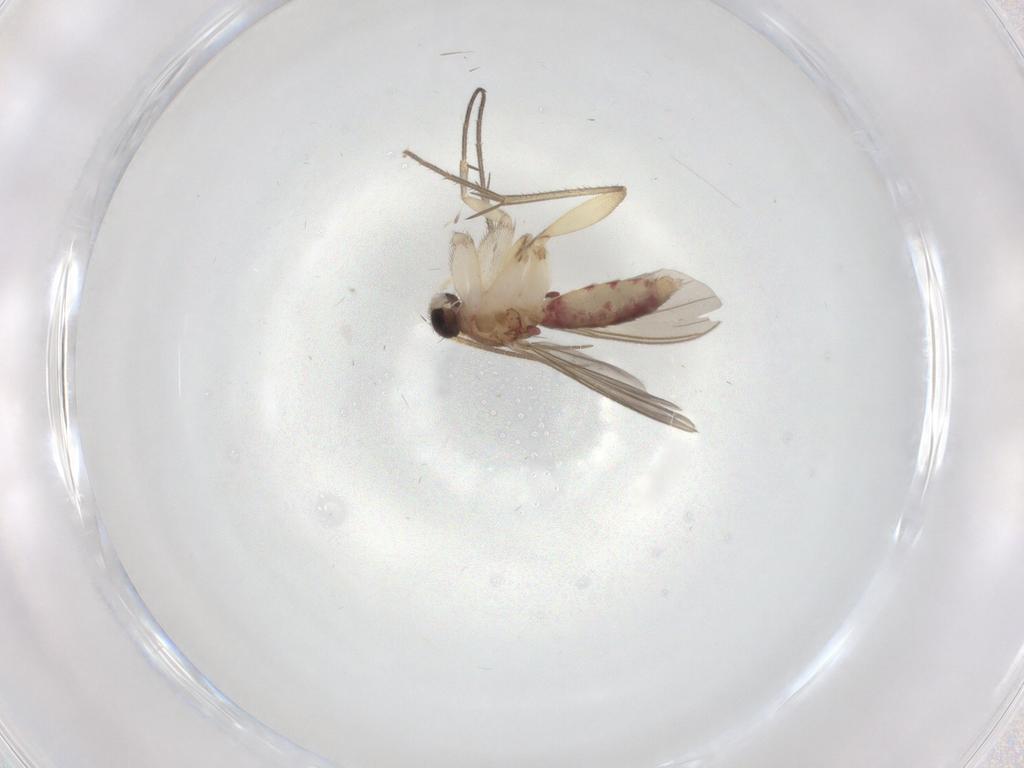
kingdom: Animalia
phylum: Arthropoda
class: Insecta
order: Diptera
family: Mycetophilidae
